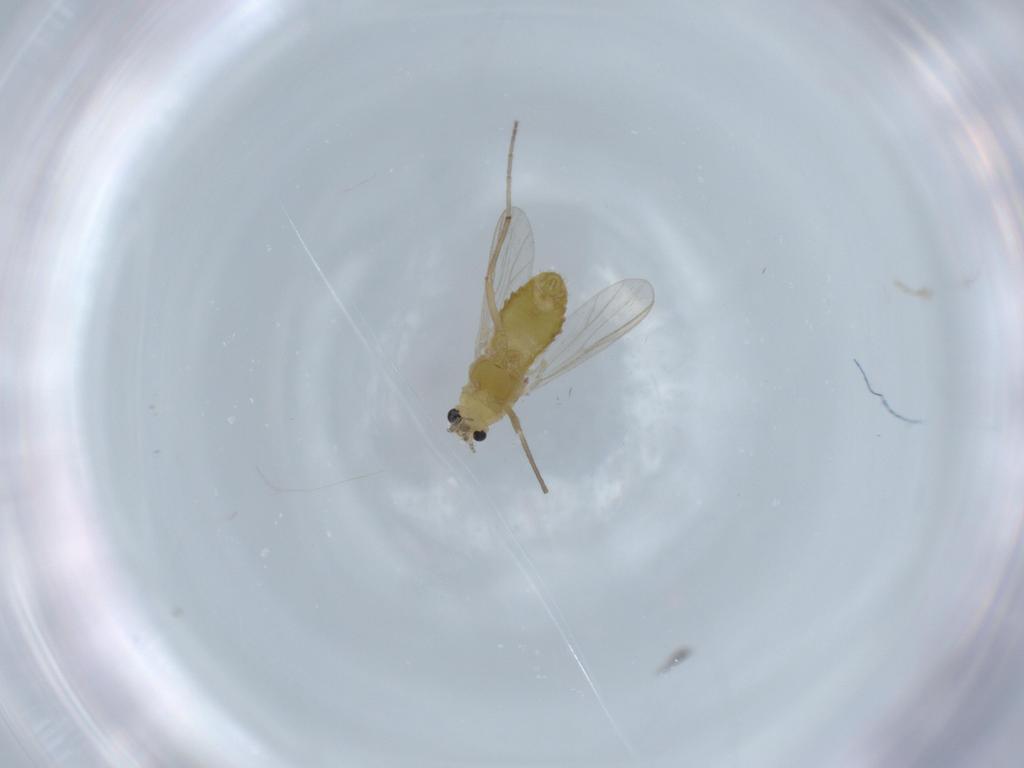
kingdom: Animalia
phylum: Arthropoda
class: Insecta
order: Diptera
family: Chironomidae
